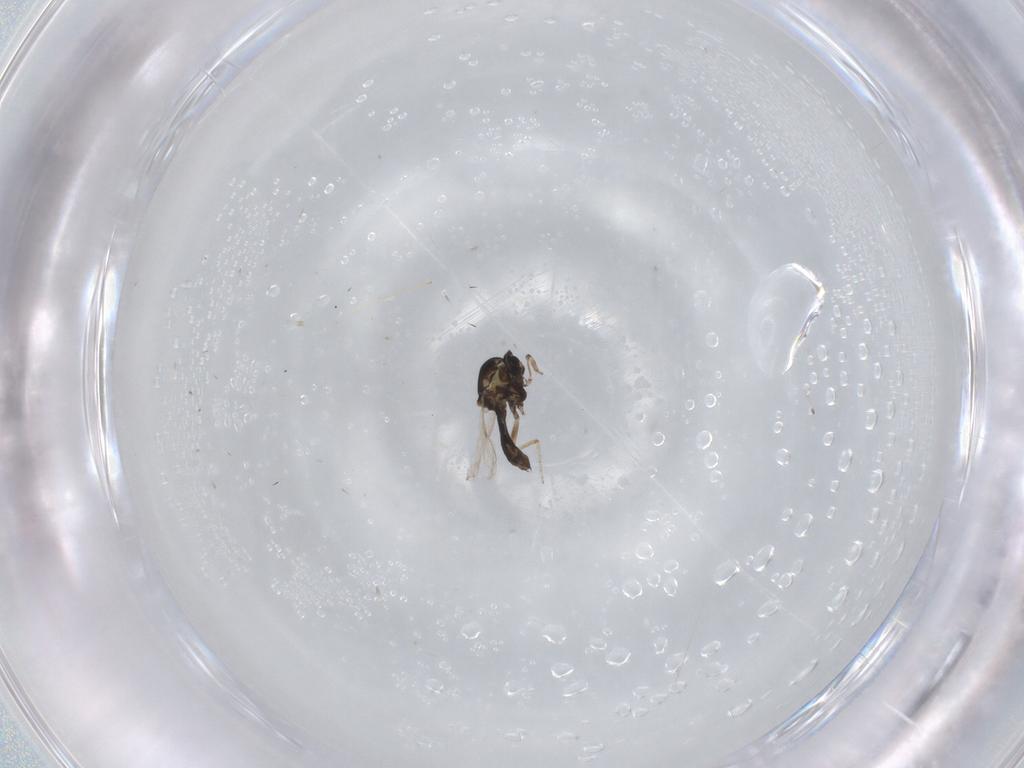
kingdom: Animalia
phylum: Arthropoda
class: Insecta
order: Diptera
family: Ceratopogonidae
